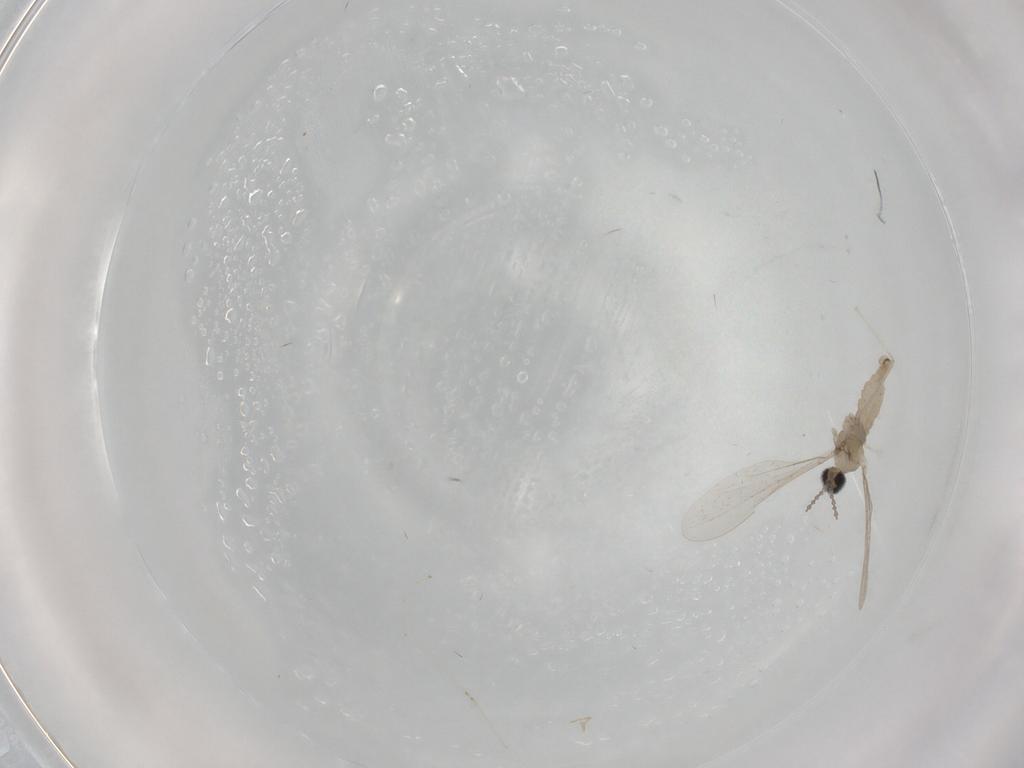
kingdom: Animalia
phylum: Arthropoda
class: Insecta
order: Diptera
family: Cecidomyiidae
